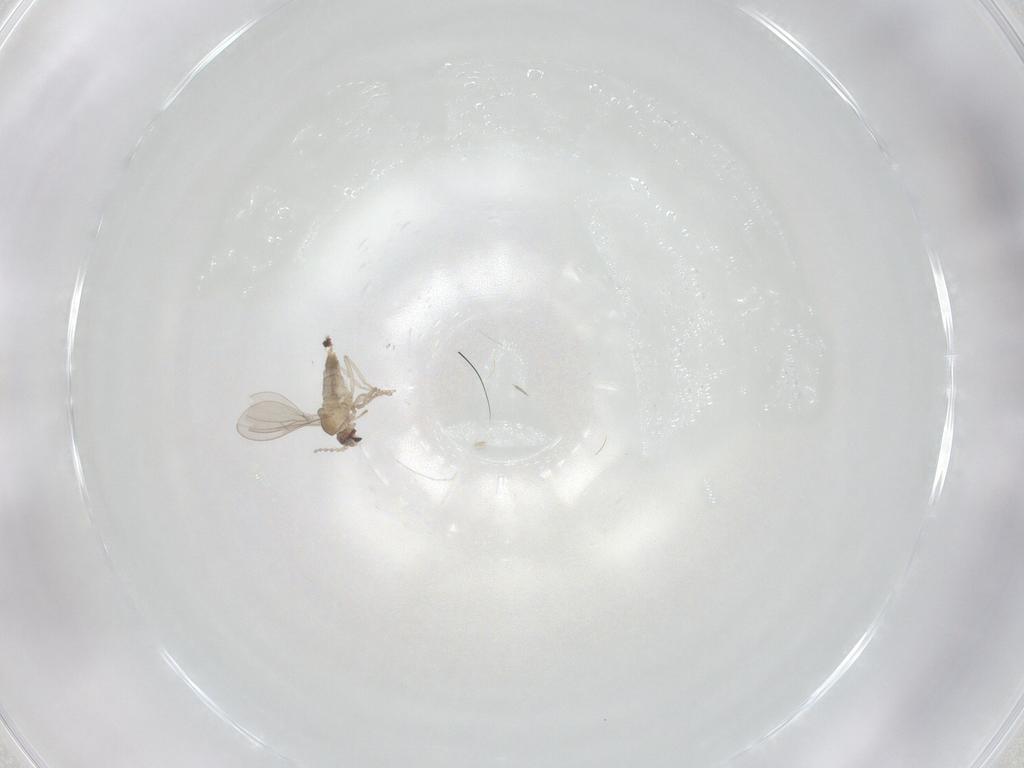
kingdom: Animalia
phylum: Arthropoda
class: Insecta
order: Diptera
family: Cecidomyiidae
